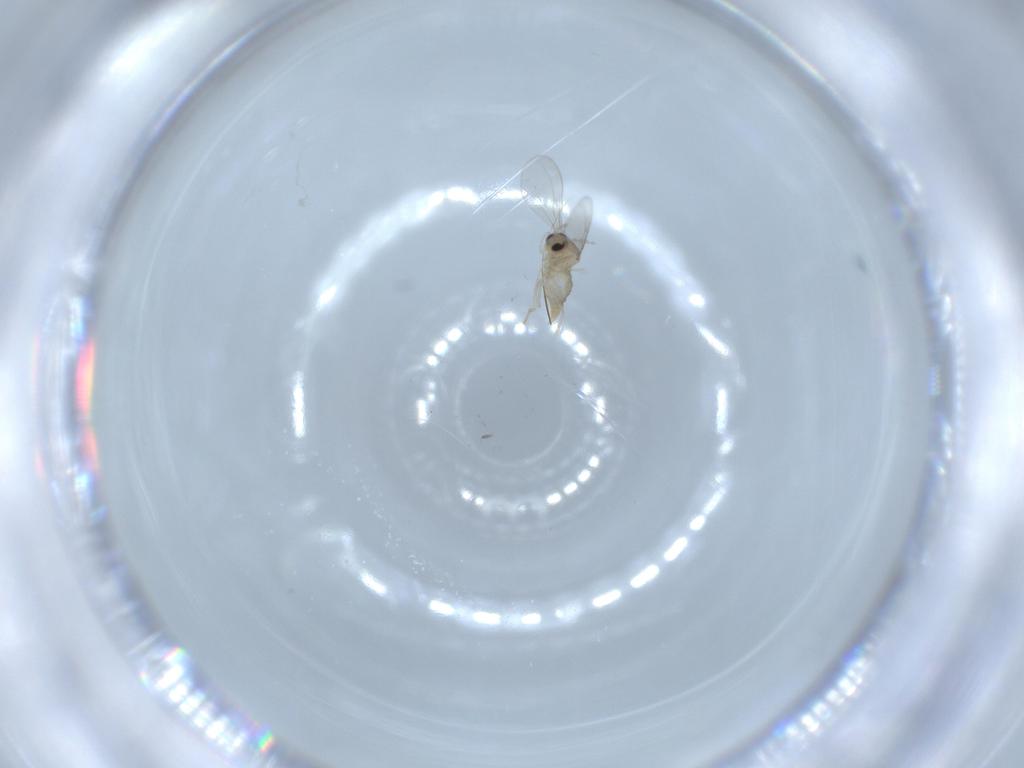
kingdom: Animalia
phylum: Arthropoda
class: Insecta
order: Diptera
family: Cecidomyiidae
